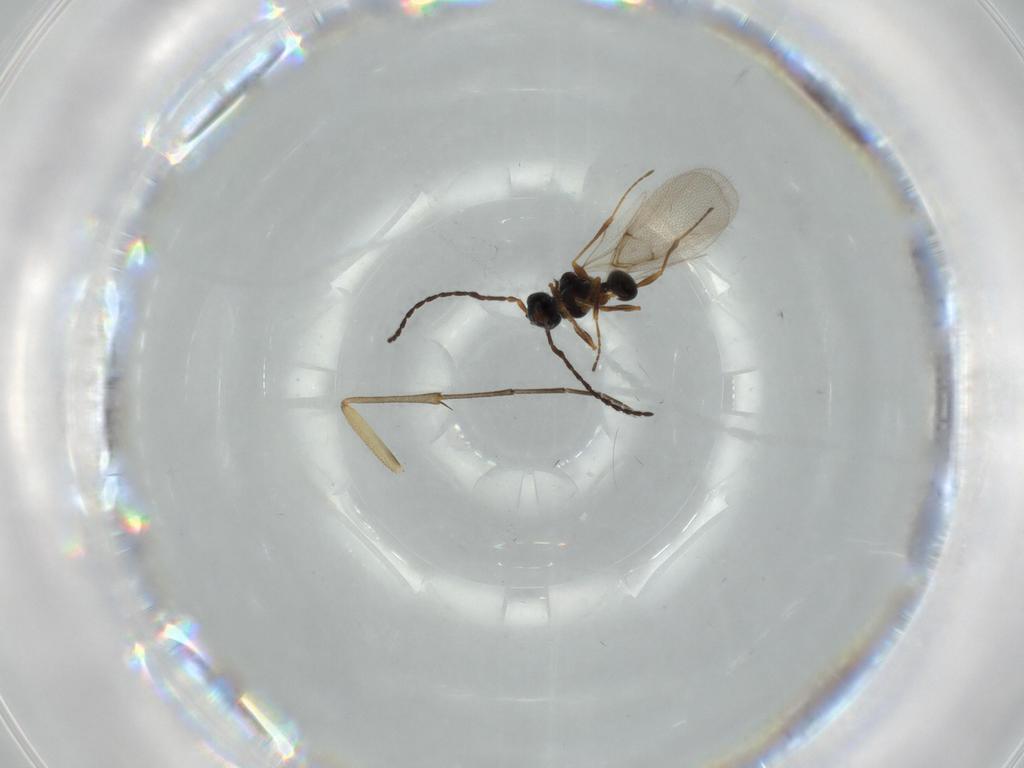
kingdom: Animalia
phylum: Arthropoda
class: Insecta
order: Hymenoptera
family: Diapriidae
